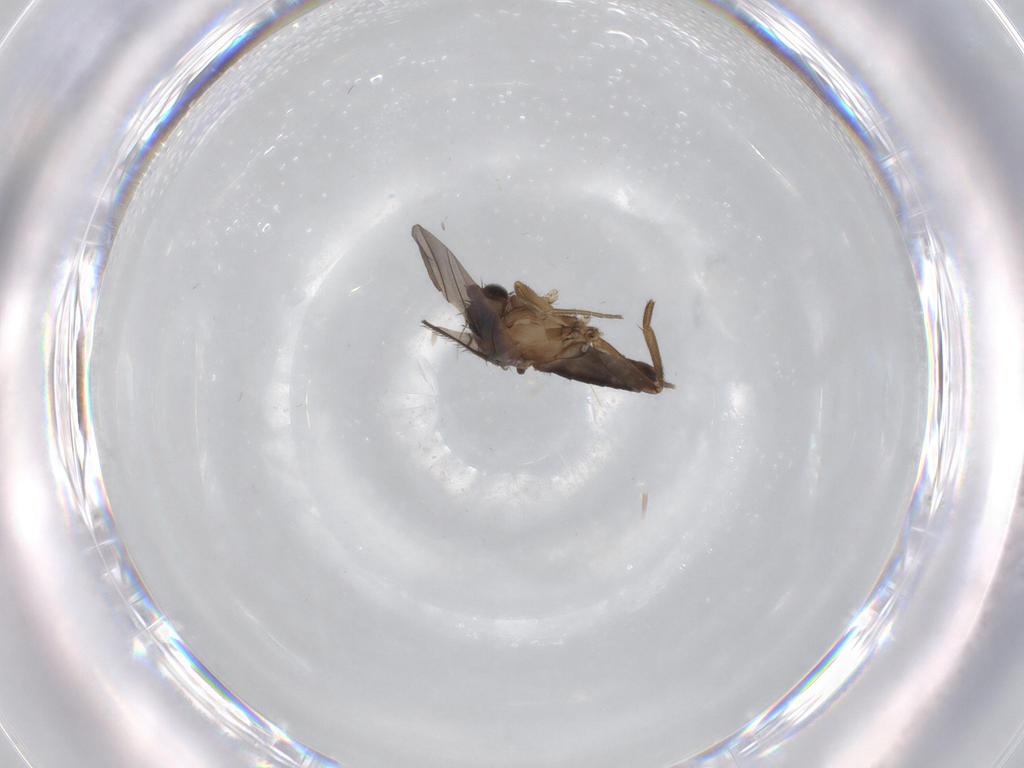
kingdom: Animalia
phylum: Arthropoda
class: Insecta
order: Diptera
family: Phoridae
